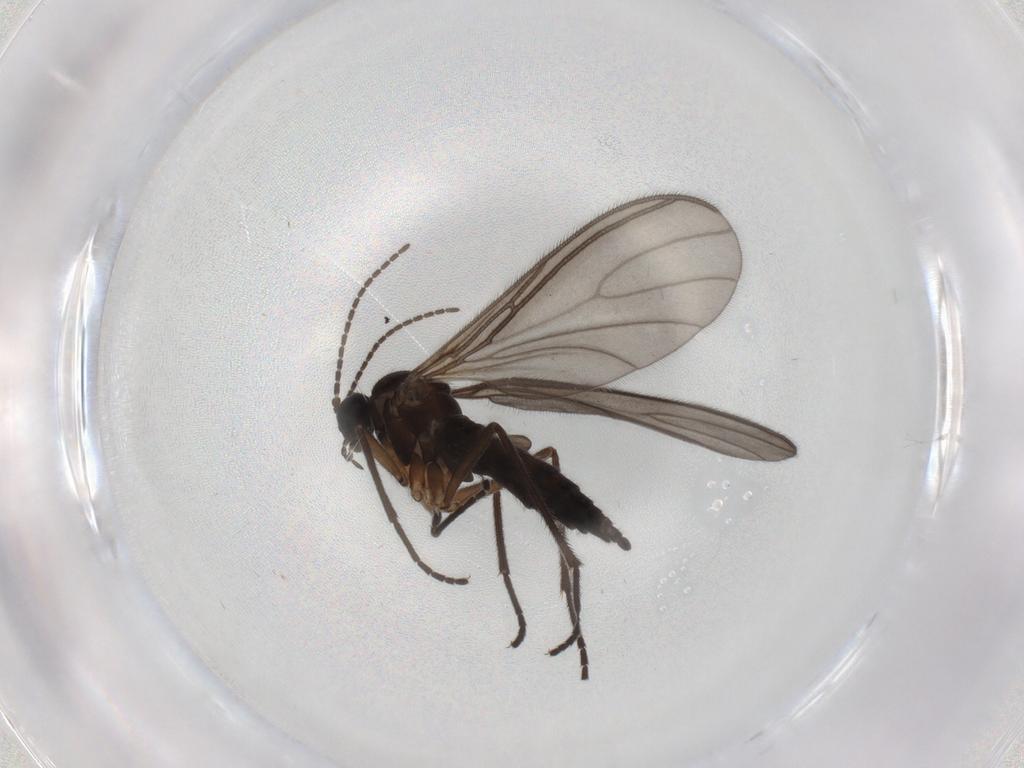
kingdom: Animalia
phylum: Arthropoda
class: Insecta
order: Diptera
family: Sciaridae
